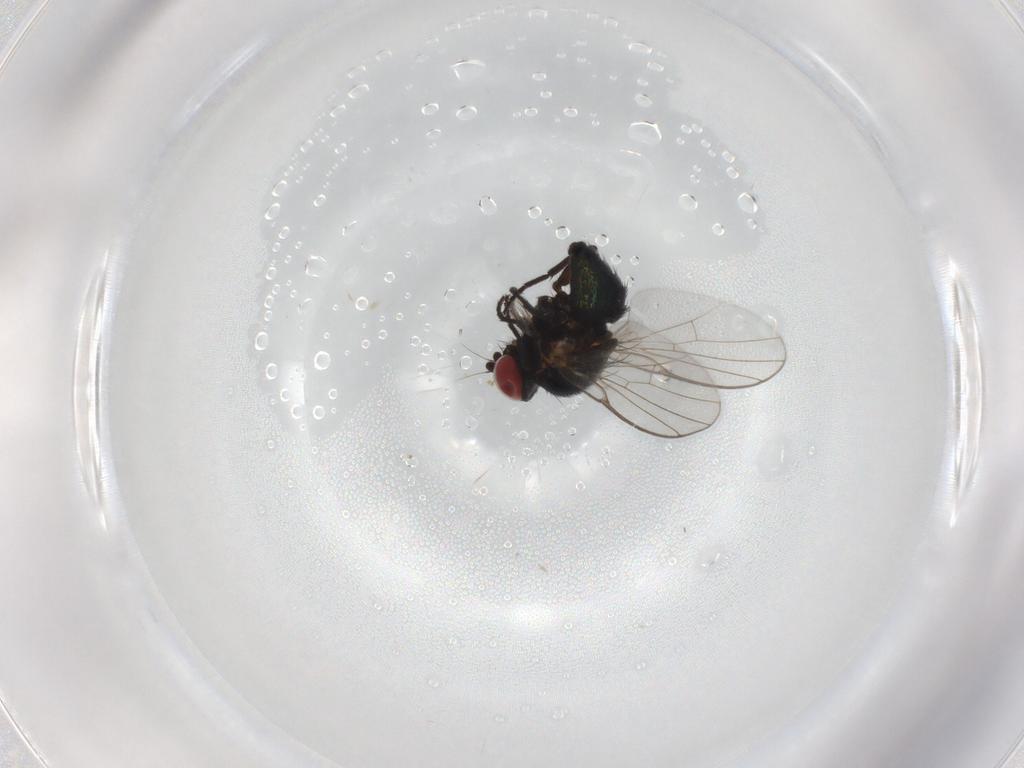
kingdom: Animalia
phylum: Arthropoda
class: Insecta
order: Diptera
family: Agromyzidae
